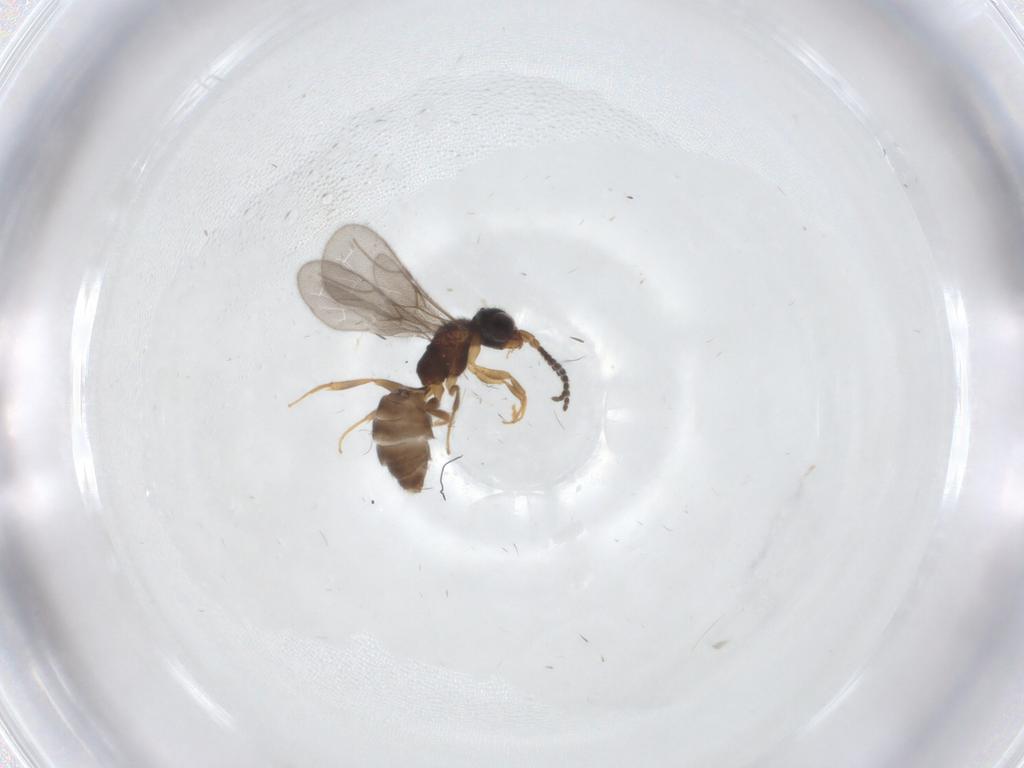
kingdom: Animalia
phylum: Arthropoda
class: Insecta
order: Hymenoptera
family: Bethylidae
